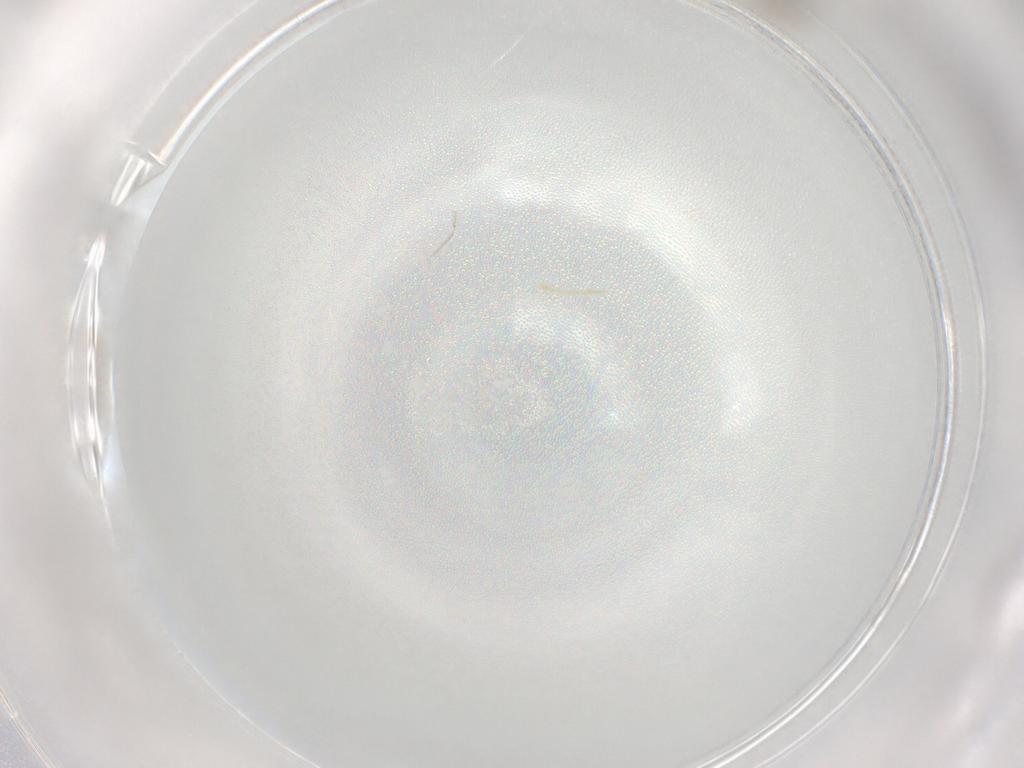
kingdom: Animalia
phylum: Arthropoda
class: Insecta
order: Diptera
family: Cecidomyiidae
